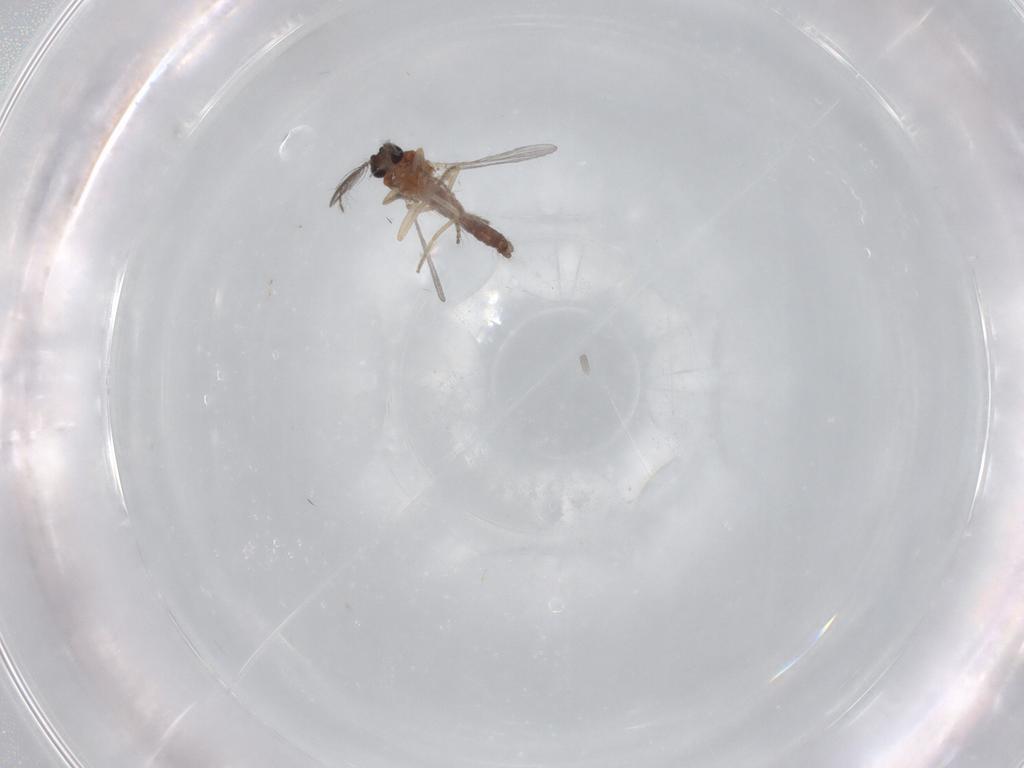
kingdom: Animalia
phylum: Arthropoda
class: Insecta
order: Diptera
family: Ceratopogonidae
